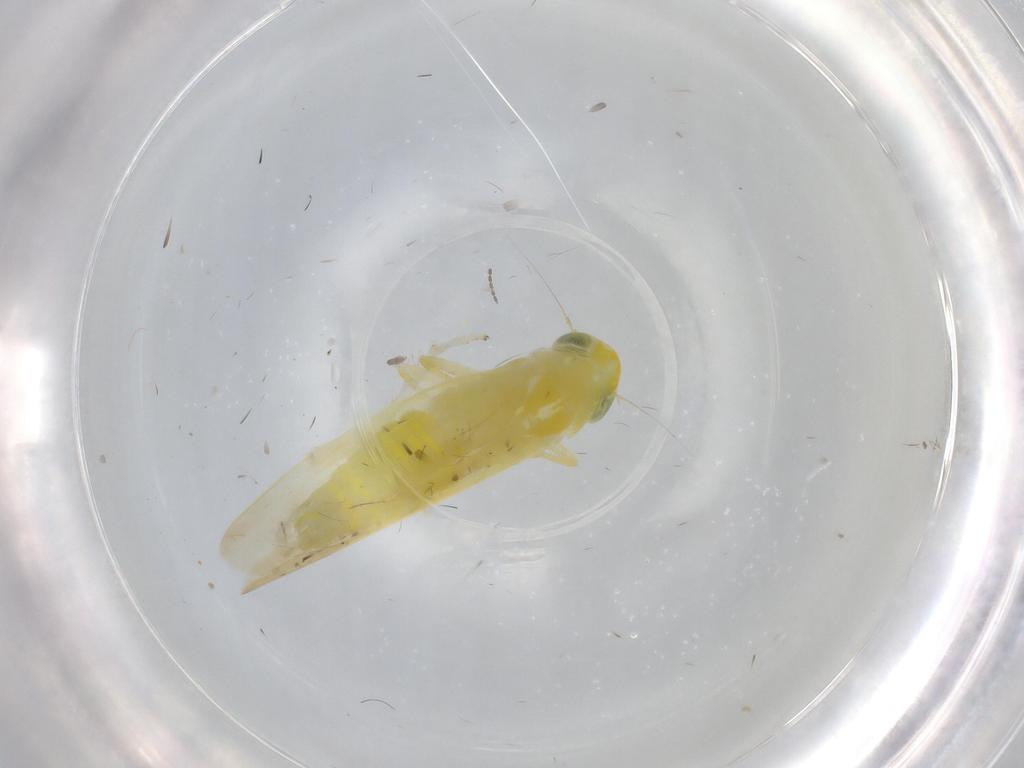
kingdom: Animalia
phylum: Arthropoda
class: Insecta
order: Hemiptera
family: Cicadellidae
